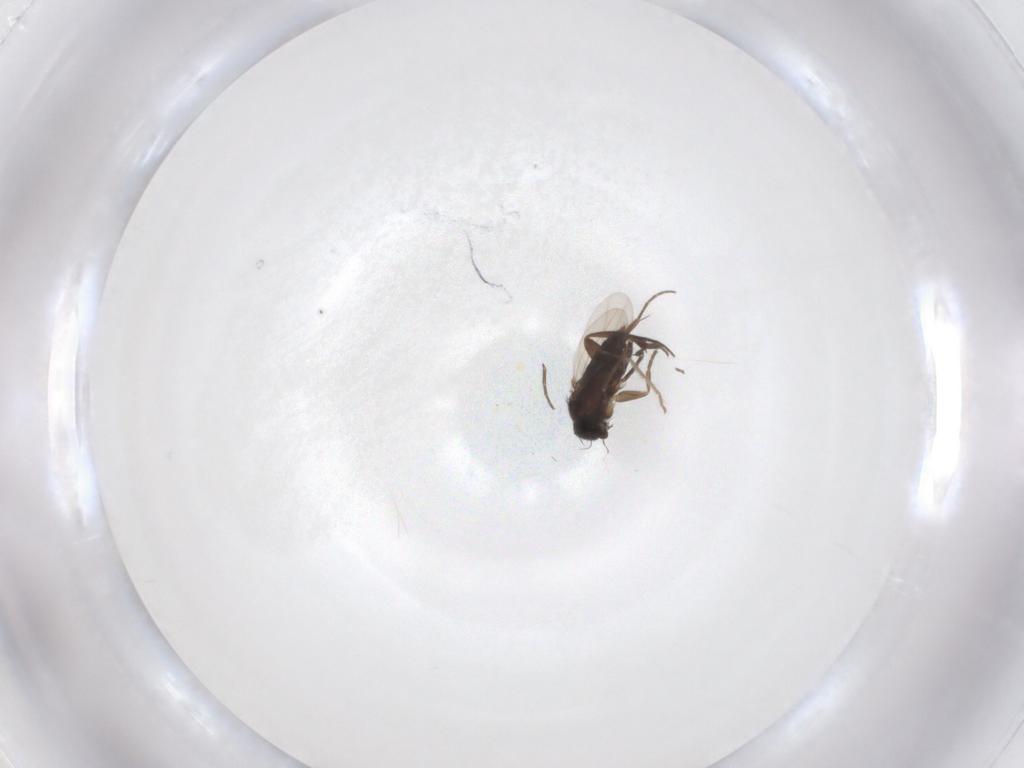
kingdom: Animalia
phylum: Arthropoda
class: Insecta
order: Diptera
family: Phoridae
